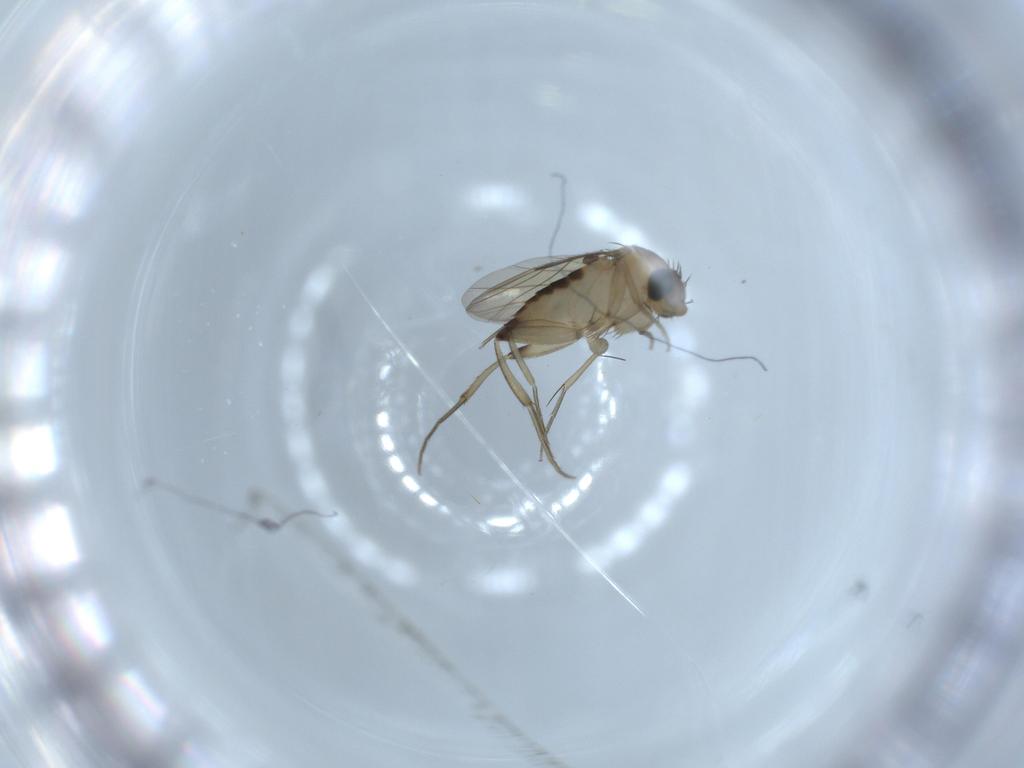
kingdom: Animalia
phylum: Arthropoda
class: Insecta
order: Diptera
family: Phoridae
